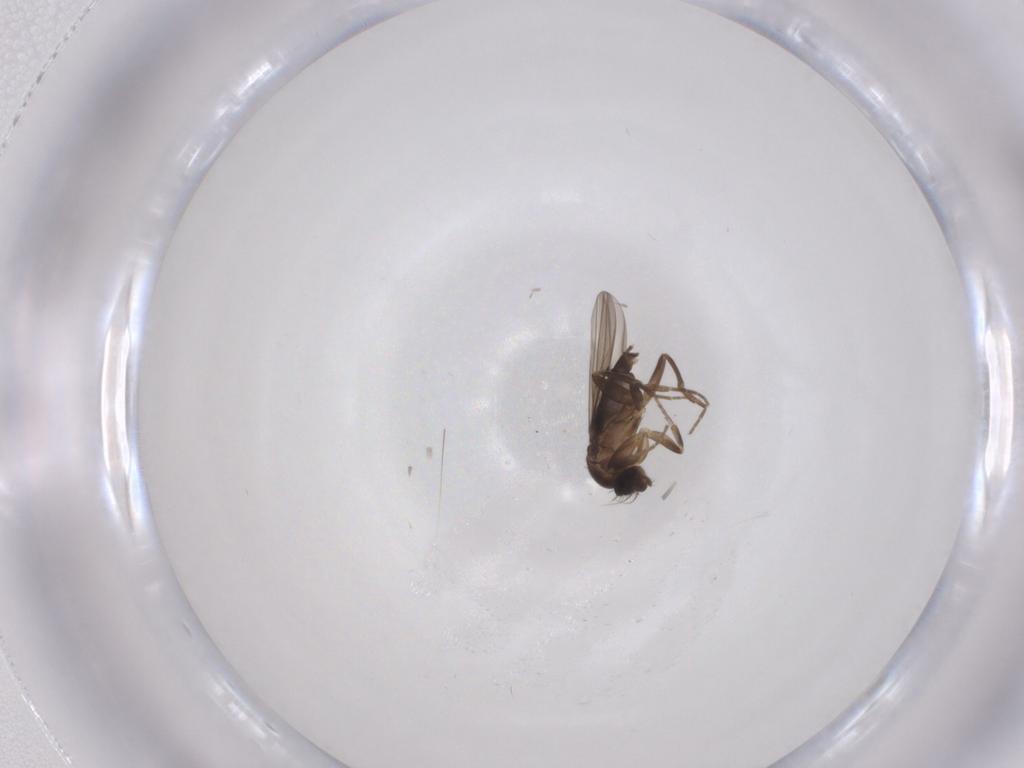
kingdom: Animalia
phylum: Arthropoda
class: Insecta
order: Diptera
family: Phoridae
